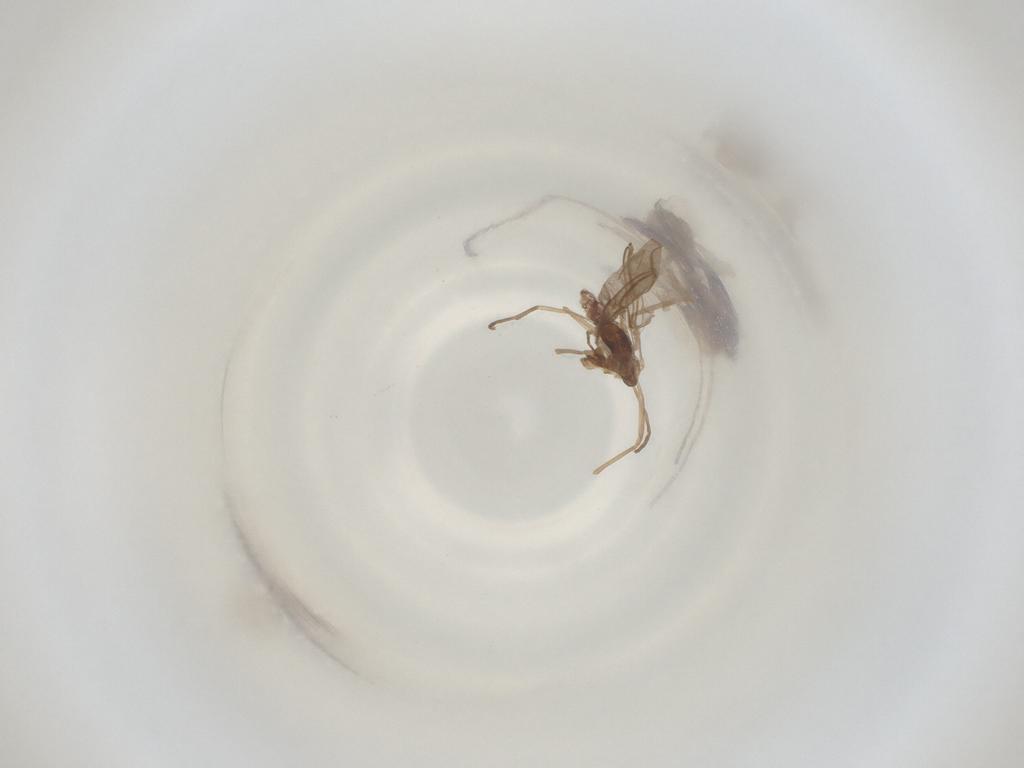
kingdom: Animalia
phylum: Arthropoda
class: Insecta
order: Diptera
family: Cecidomyiidae
